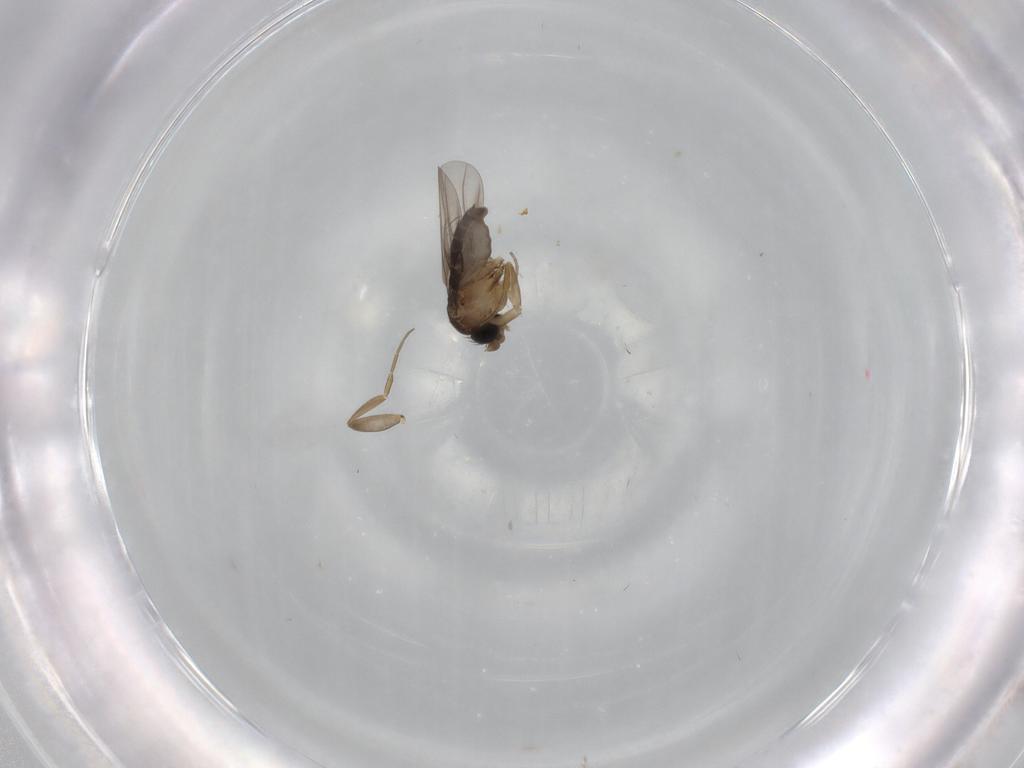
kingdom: Animalia
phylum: Arthropoda
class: Insecta
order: Diptera
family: Phoridae
